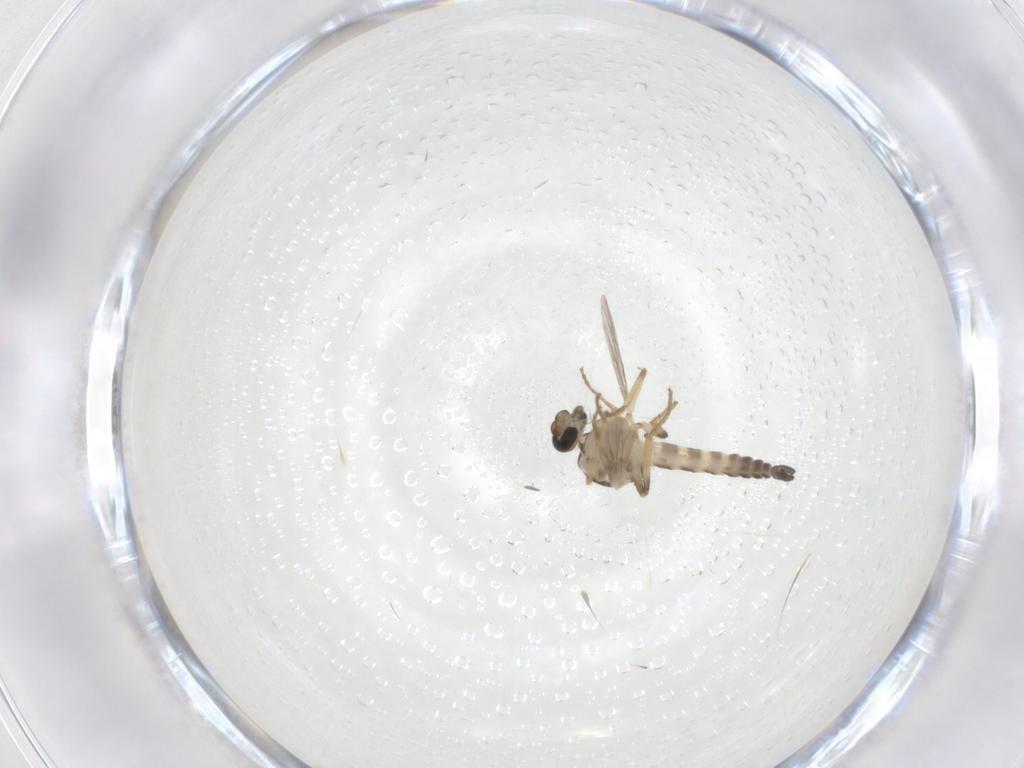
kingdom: Animalia
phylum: Arthropoda
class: Insecta
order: Diptera
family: Ceratopogonidae
